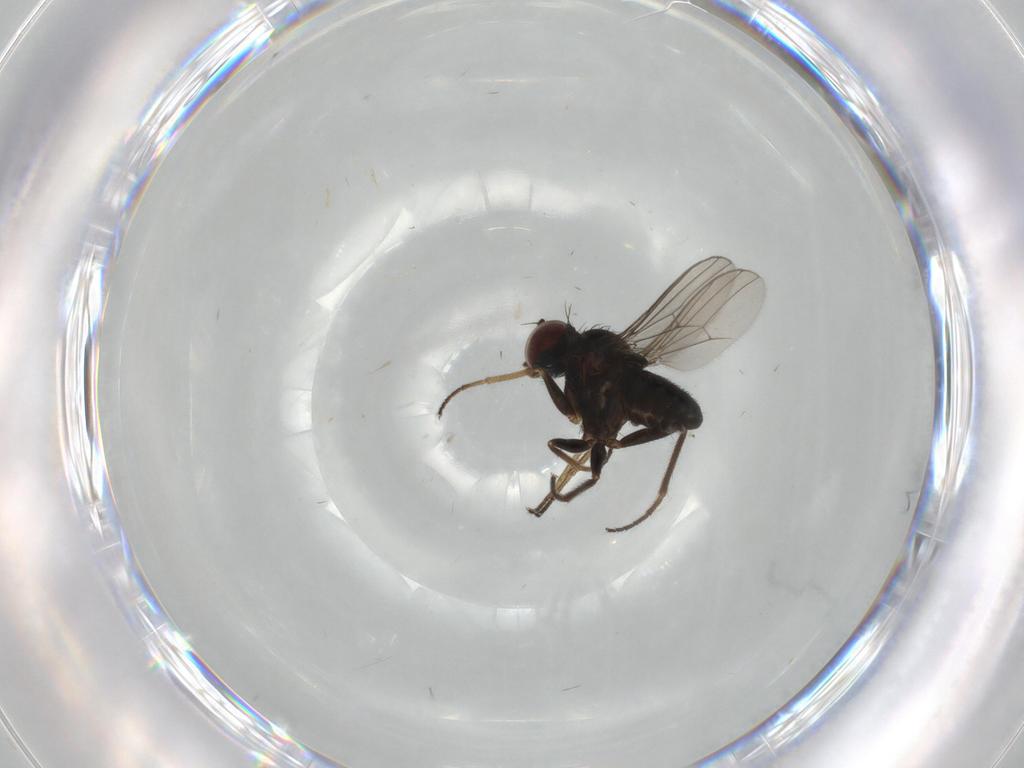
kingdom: Animalia
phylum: Arthropoda
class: Insecta
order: Diptera
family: Dolichopodidae
